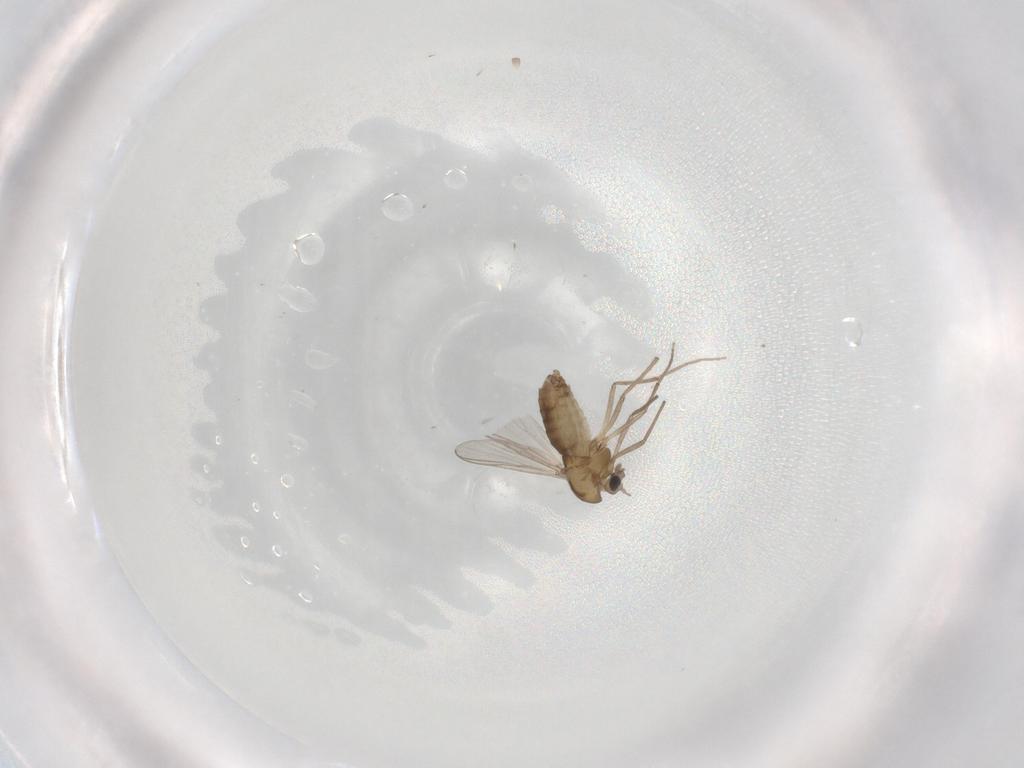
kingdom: Animalia
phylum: Arthropoda
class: Insecta
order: Diptera
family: Chironomidae
